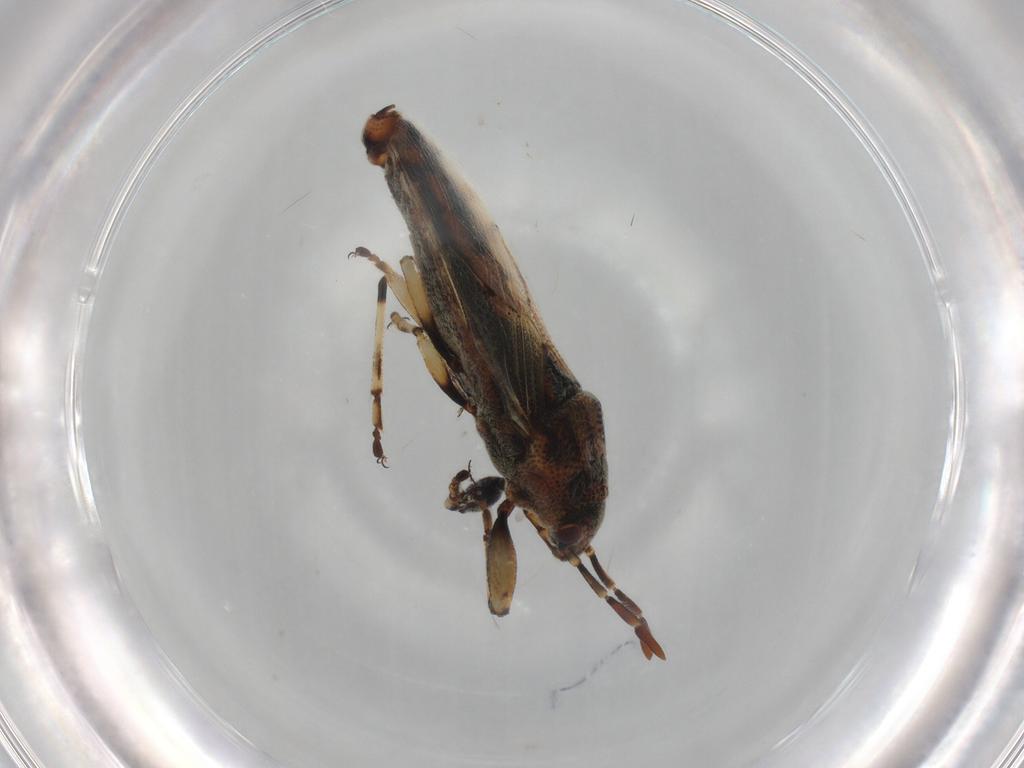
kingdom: Animalia
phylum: Arthropoda
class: Insecta
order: Hemiptera
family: Pachygronthidae
